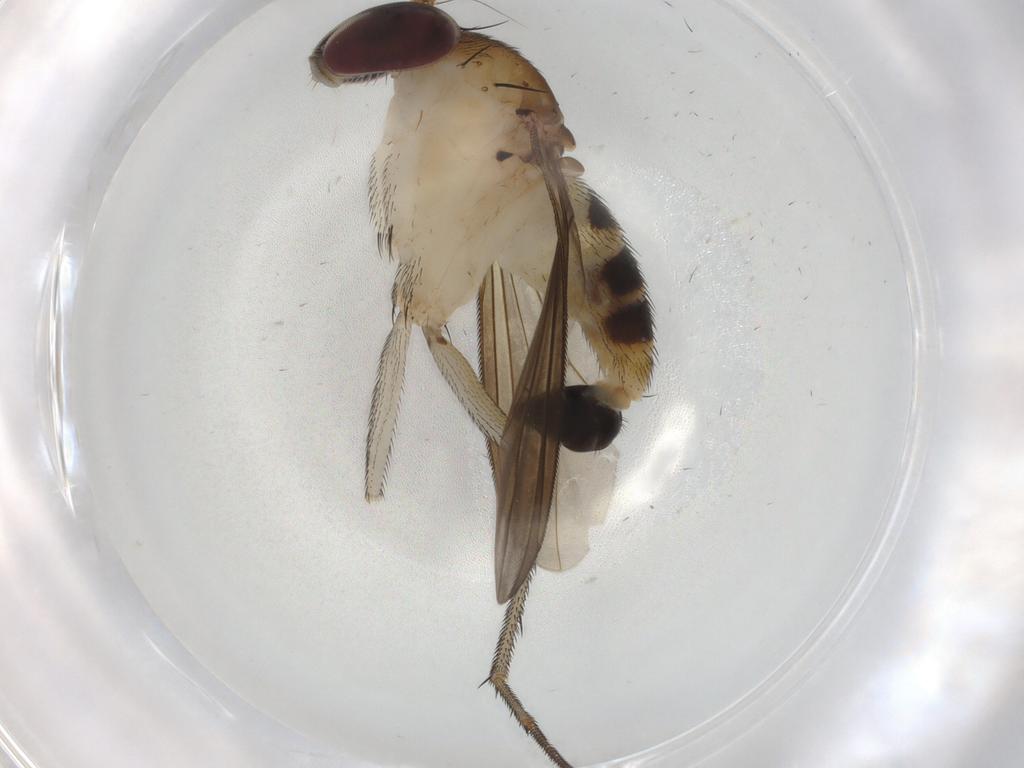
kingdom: Animalia
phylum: Arthropoda
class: Insecta
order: Diptera
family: Dolichopodidae
